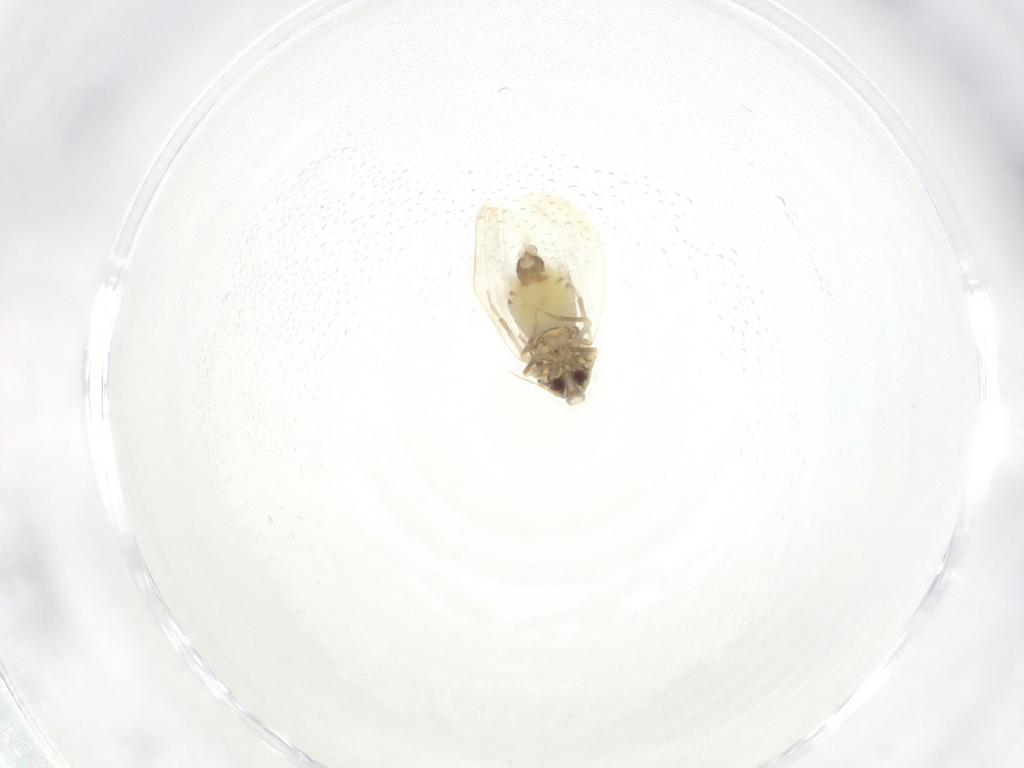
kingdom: Animalia
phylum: Arthropoda
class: Insecta
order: Hemiptera
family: Aleyrodidae
